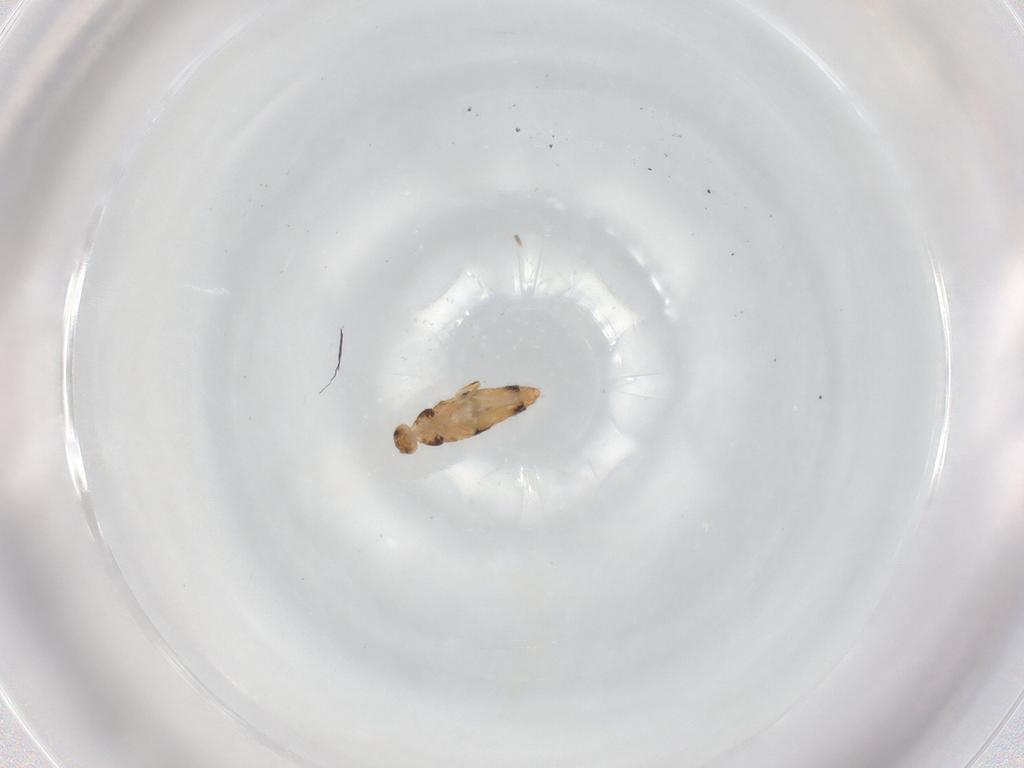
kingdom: Animalia
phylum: Arthropoda
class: Collembola
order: Entomobryomorpha
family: Entomobryidae
